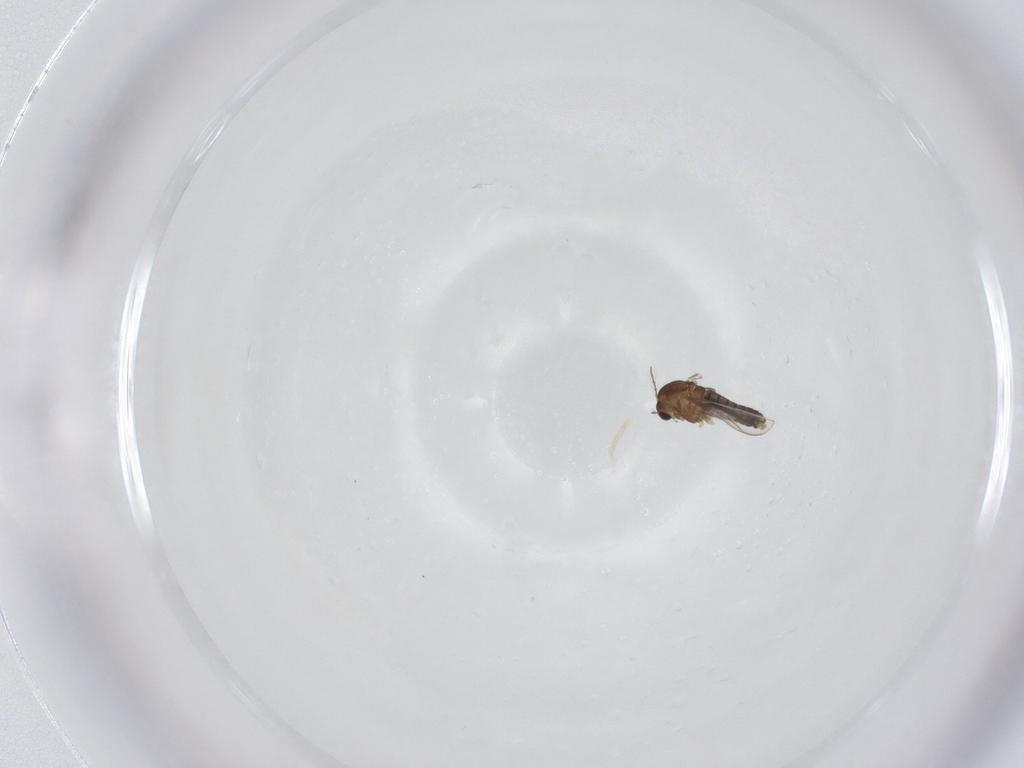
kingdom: Animalia
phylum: Arthropoda
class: Insecta
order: Diptera
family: Chironomidae
